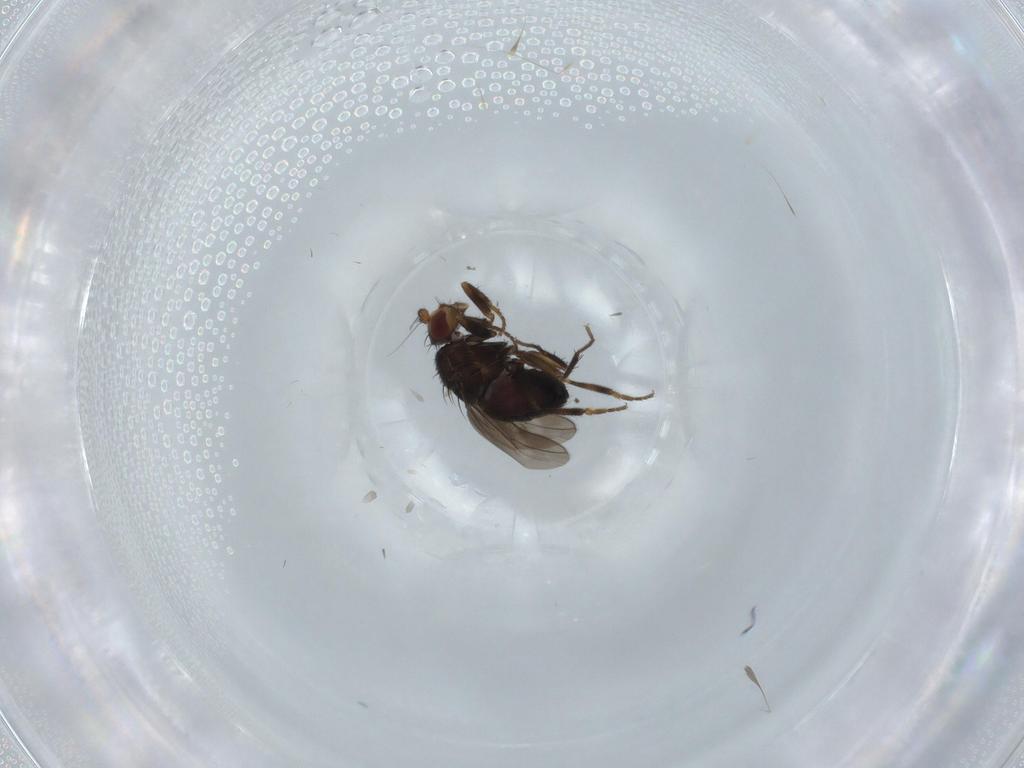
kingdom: Animalia
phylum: Arthropoda
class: Insecta
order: Diptera
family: Sphaeroceridae
